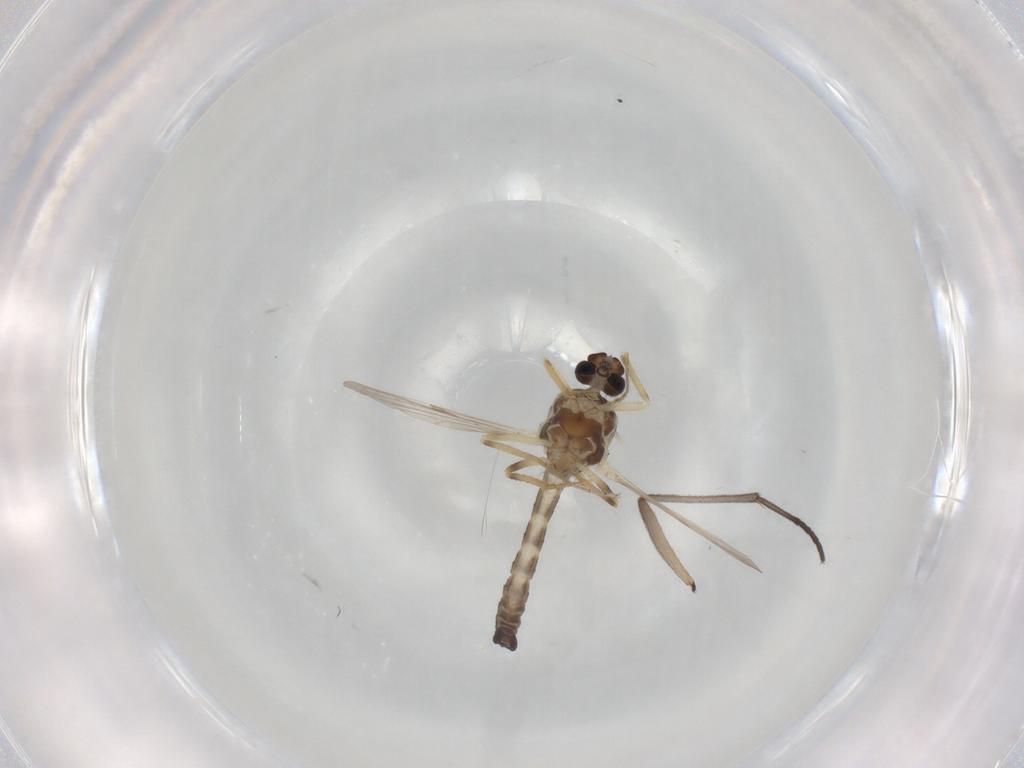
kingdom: Animalia
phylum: Arthropoda
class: Insecta
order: Diptera
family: Ceratopogonidae
